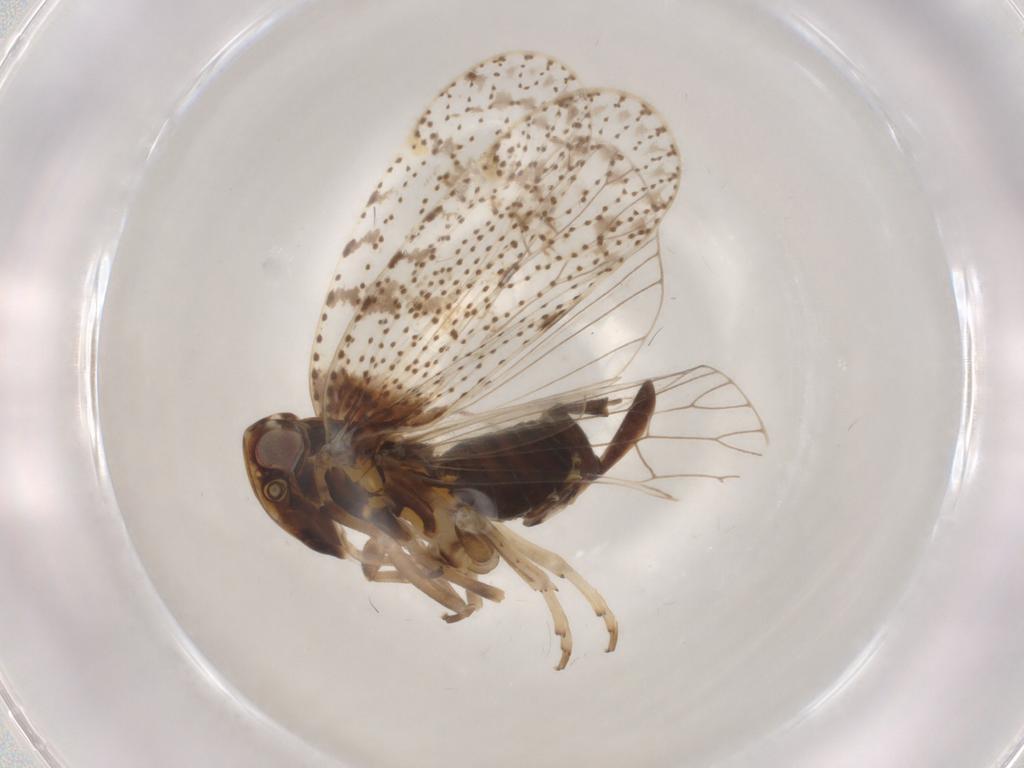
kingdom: Animalia
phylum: Arthropoda
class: Insecta
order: Hemiptera
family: Cixiidae
